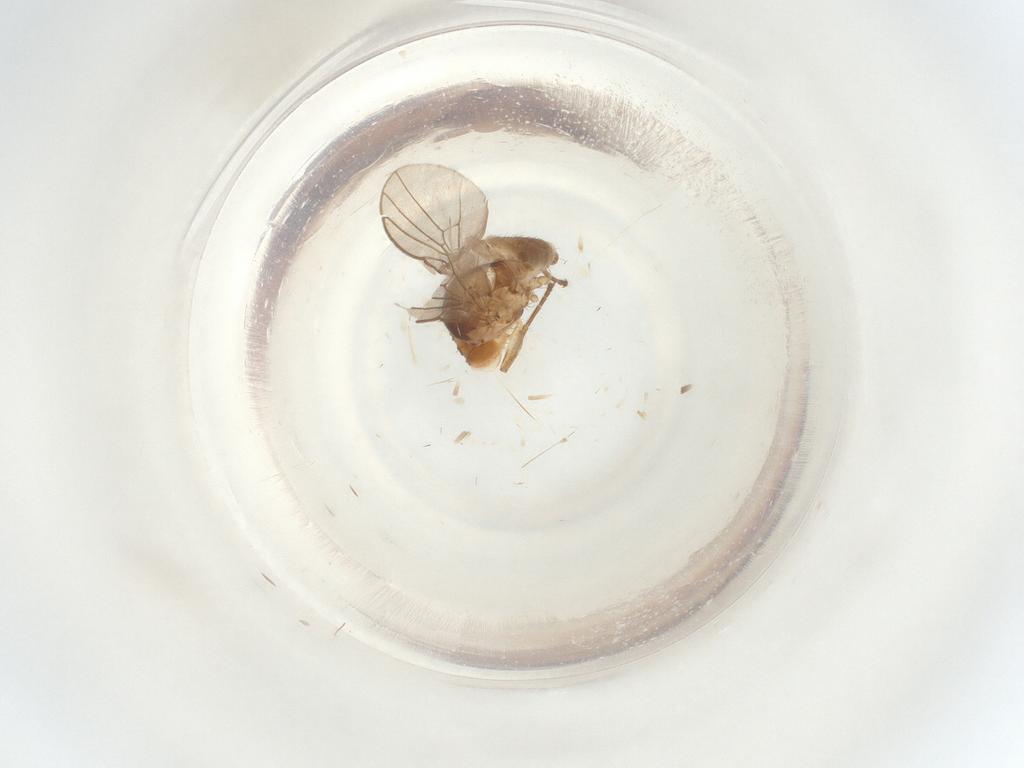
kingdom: Animalia
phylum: Arthropoda
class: Insecta
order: Diptera
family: Agromyzidae
